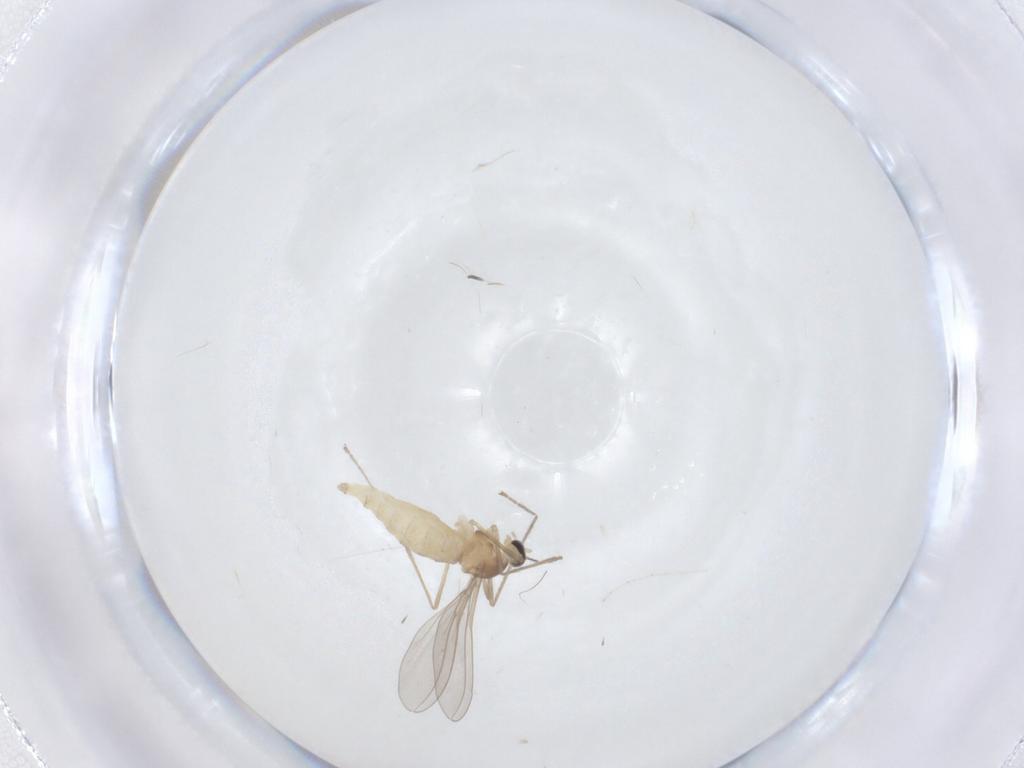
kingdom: Animalia
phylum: Arthropoda
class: Insecta
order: Diptera
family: Cecidomyiidae
